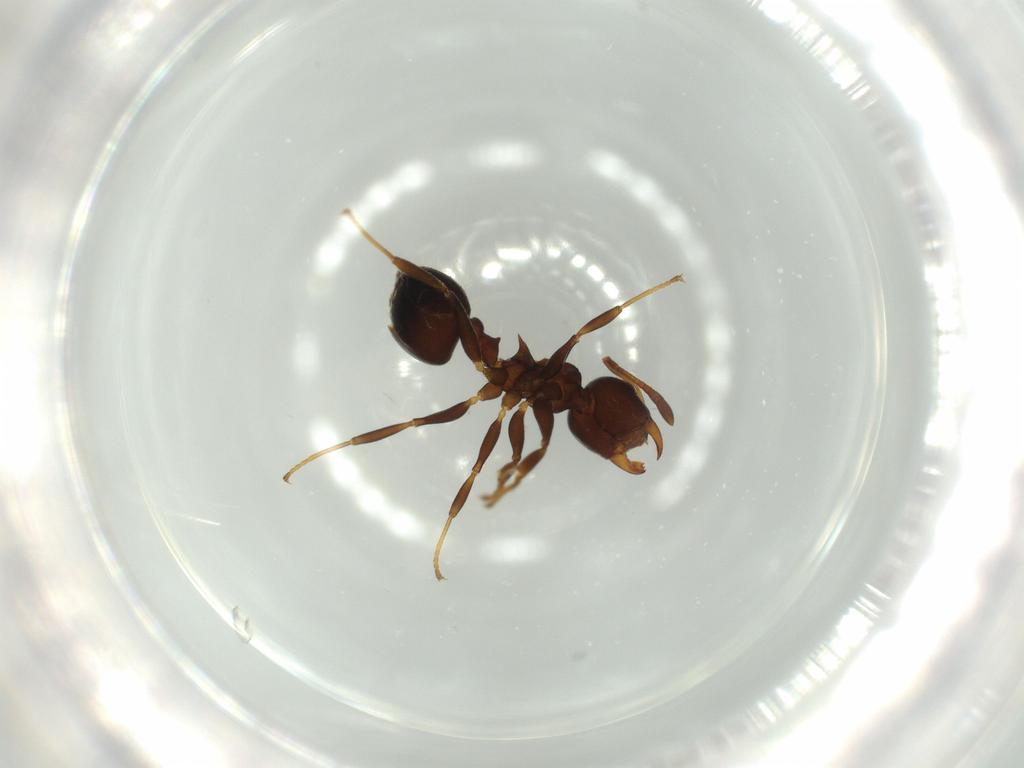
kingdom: Animalia
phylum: Arthropoda
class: Insecta
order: Hymenoptera
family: Formicidae
